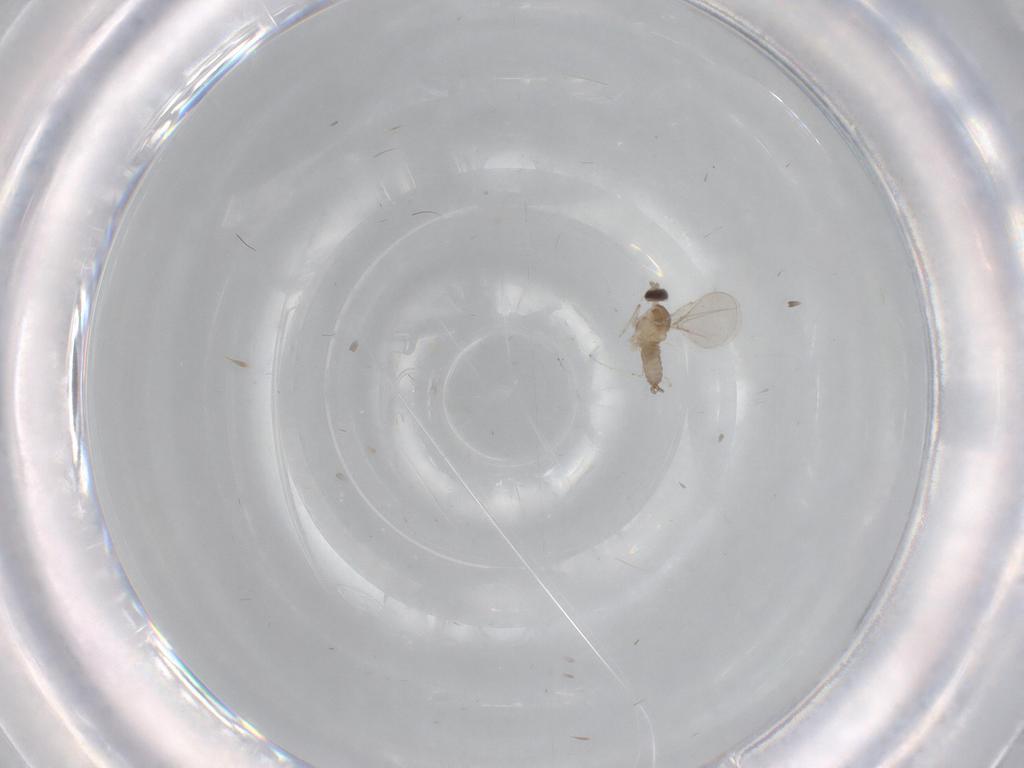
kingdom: Animalia
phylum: Arthropoda
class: Insecta
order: Diptera
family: Cecidomyiidae
